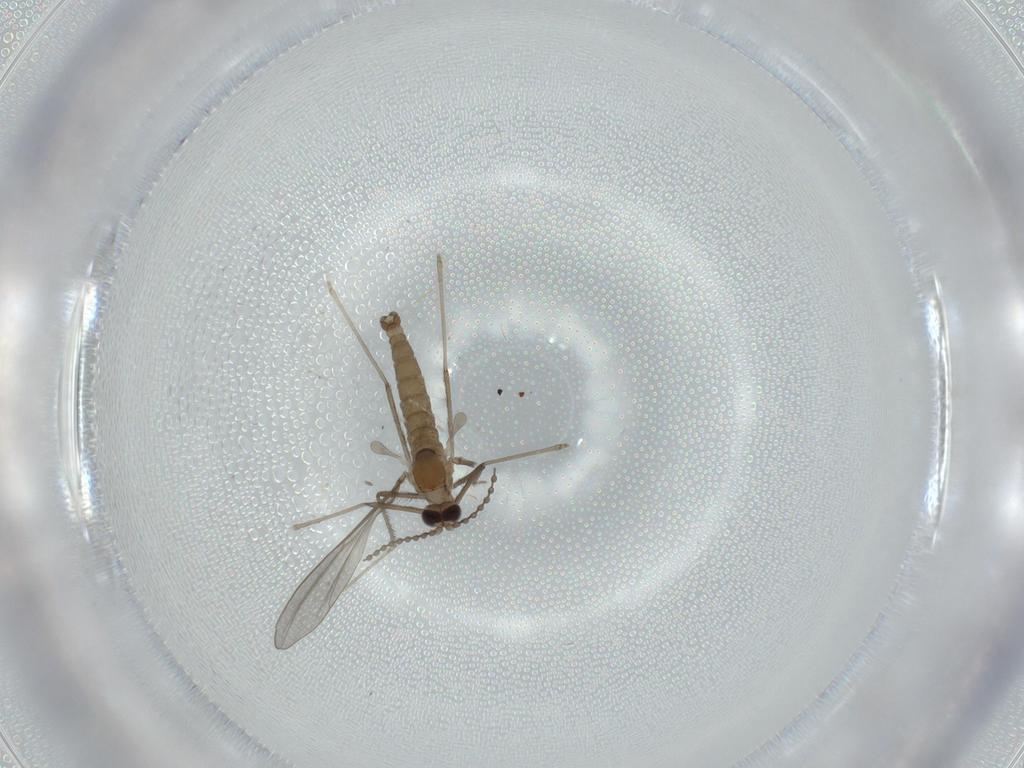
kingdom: Animalia
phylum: Arthropoda
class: Insecta
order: Diptera
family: Cecidomyiidae
